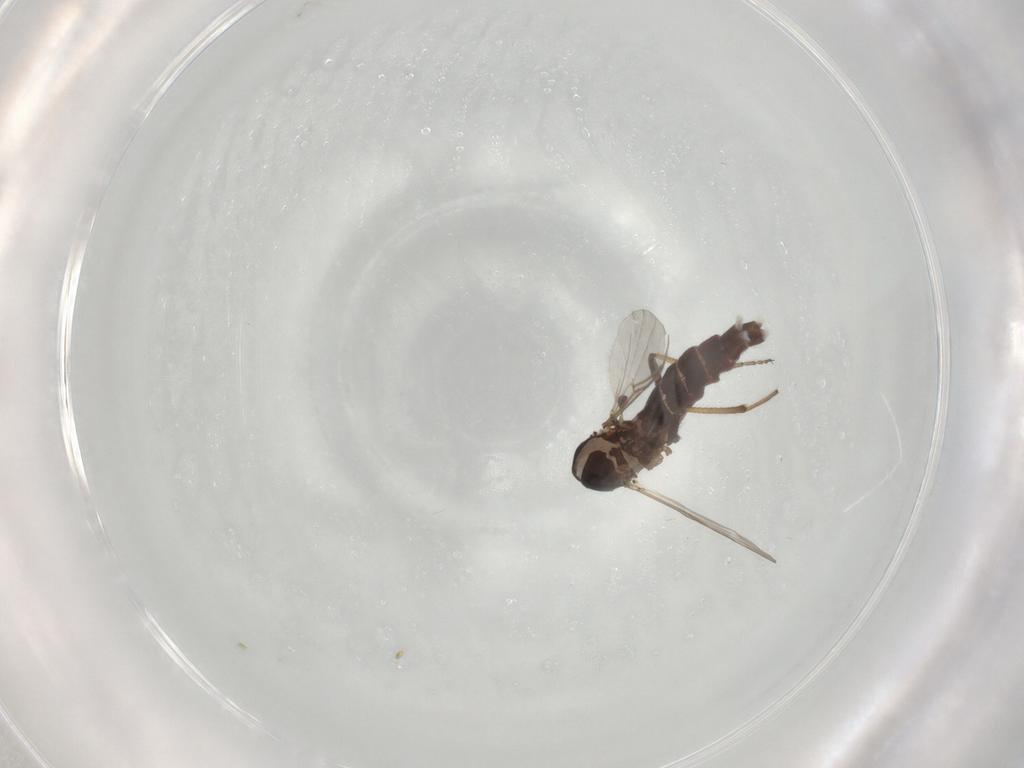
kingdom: Animalia
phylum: Arthropoda
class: Insecta
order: Diptera
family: Ceratopogonidae
